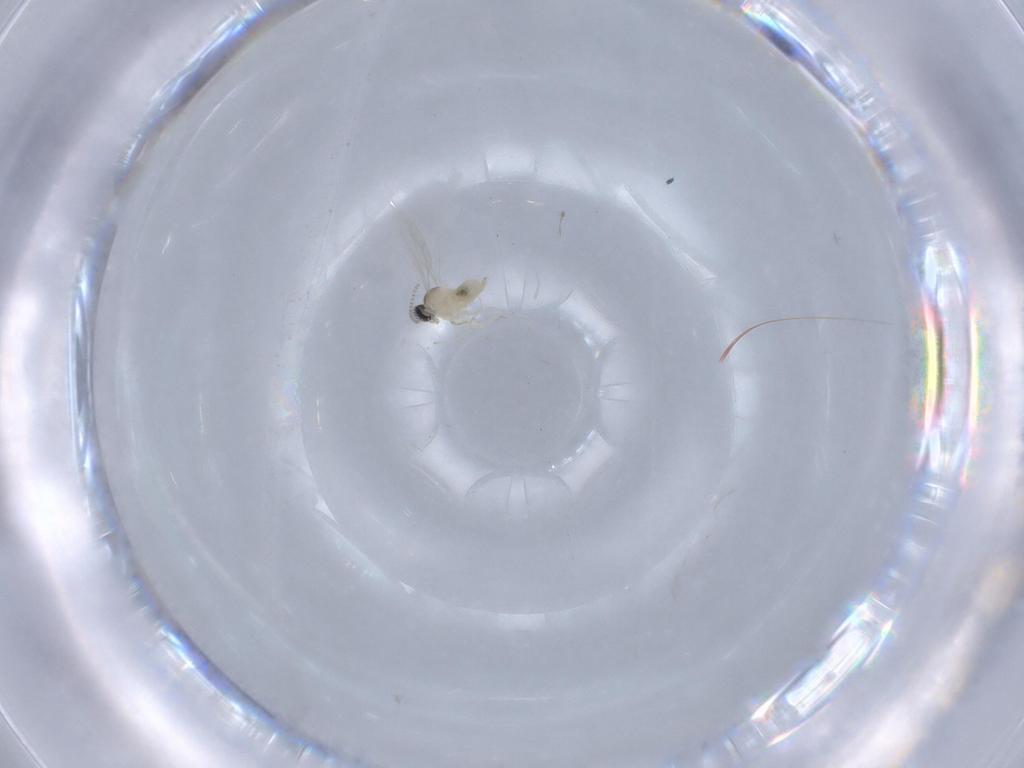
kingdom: Animalia
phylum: Arthropoda
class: Insecta
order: Diptera
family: Cecidomyiidae
